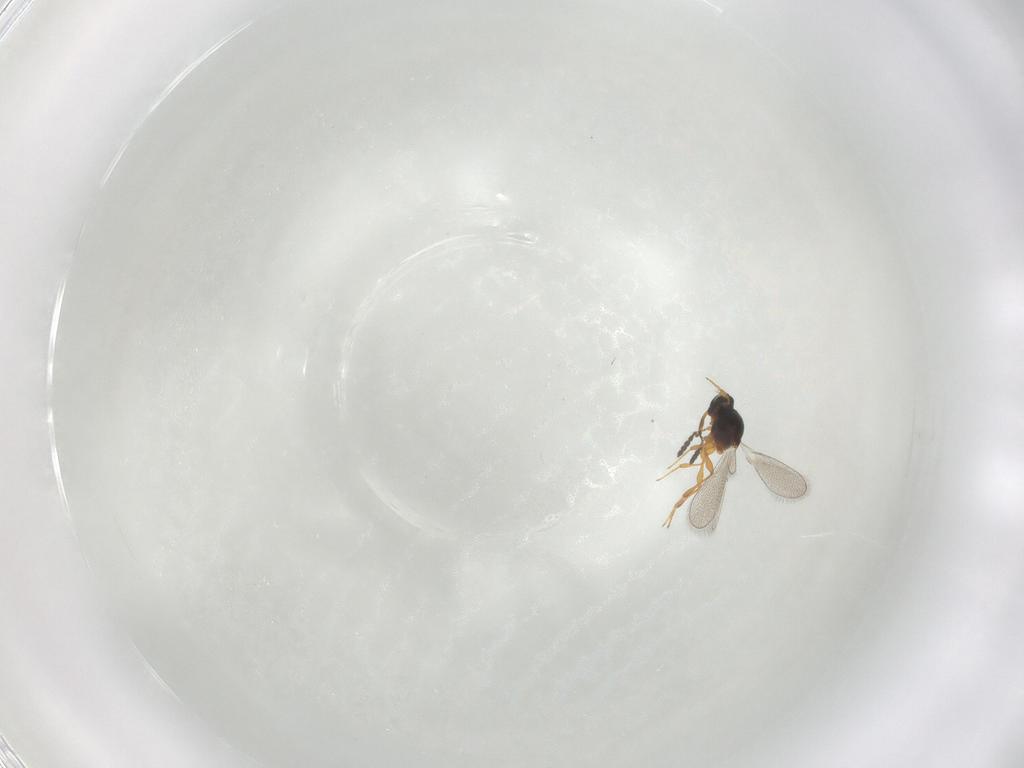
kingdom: Animalia
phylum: Arthropoda
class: Insecta
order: Hymenoptera
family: Platygastridae
